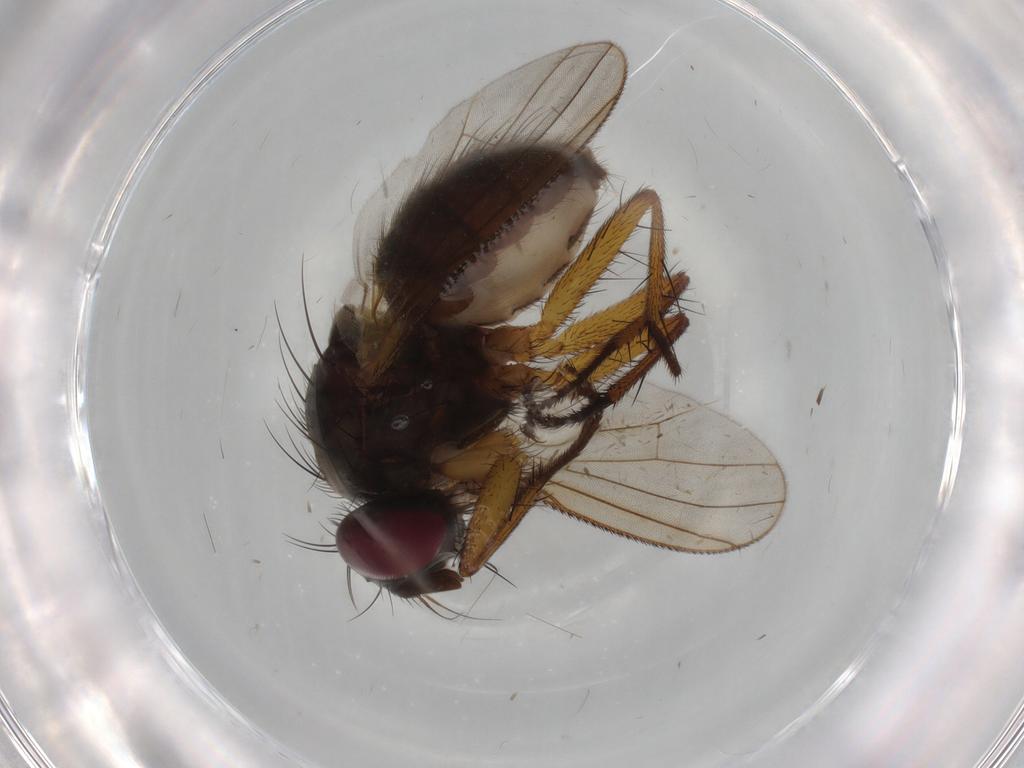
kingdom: Animalia
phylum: Arthropoda
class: Insecta
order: Diptera
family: Muscidae
